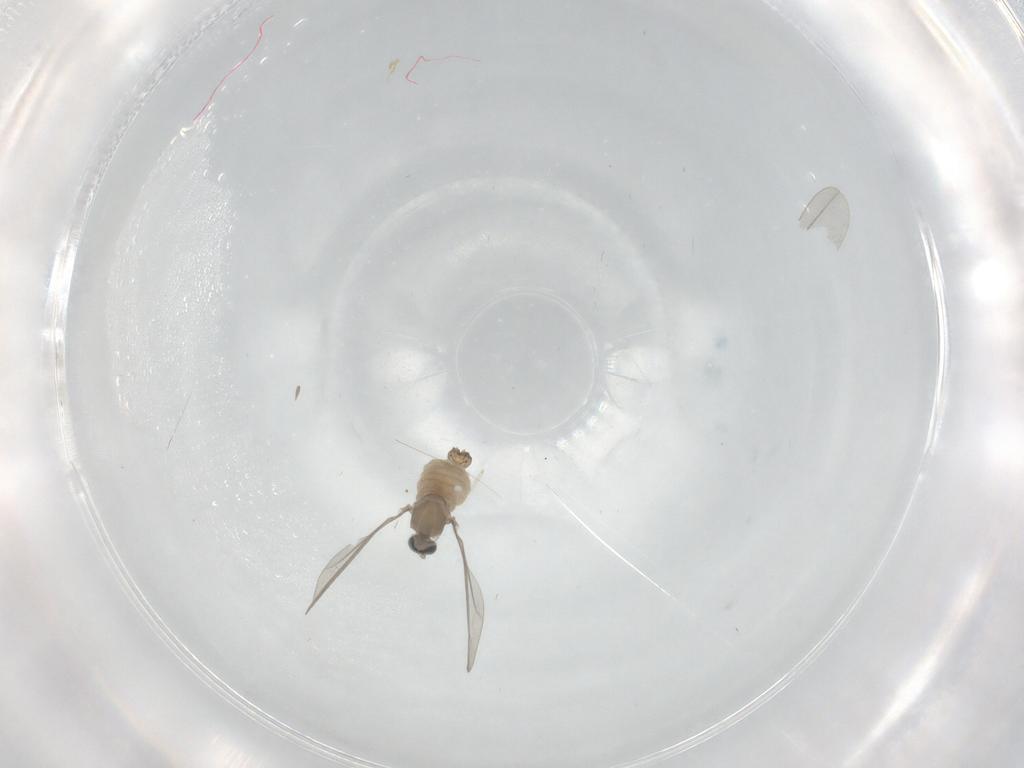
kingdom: Animalia
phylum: Arthropoda
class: Insecta
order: Diptera
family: Cecidomyiidae
